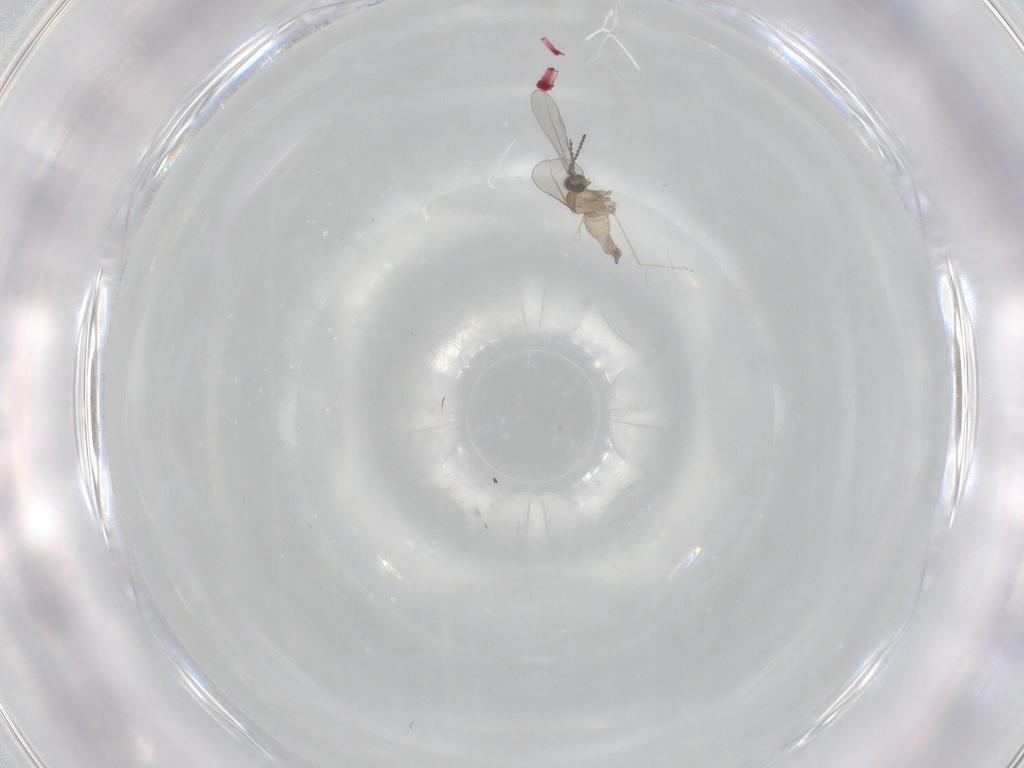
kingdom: Animalia
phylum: Arthropoda
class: Insecta
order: Diptera
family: Cecidomyiidae
